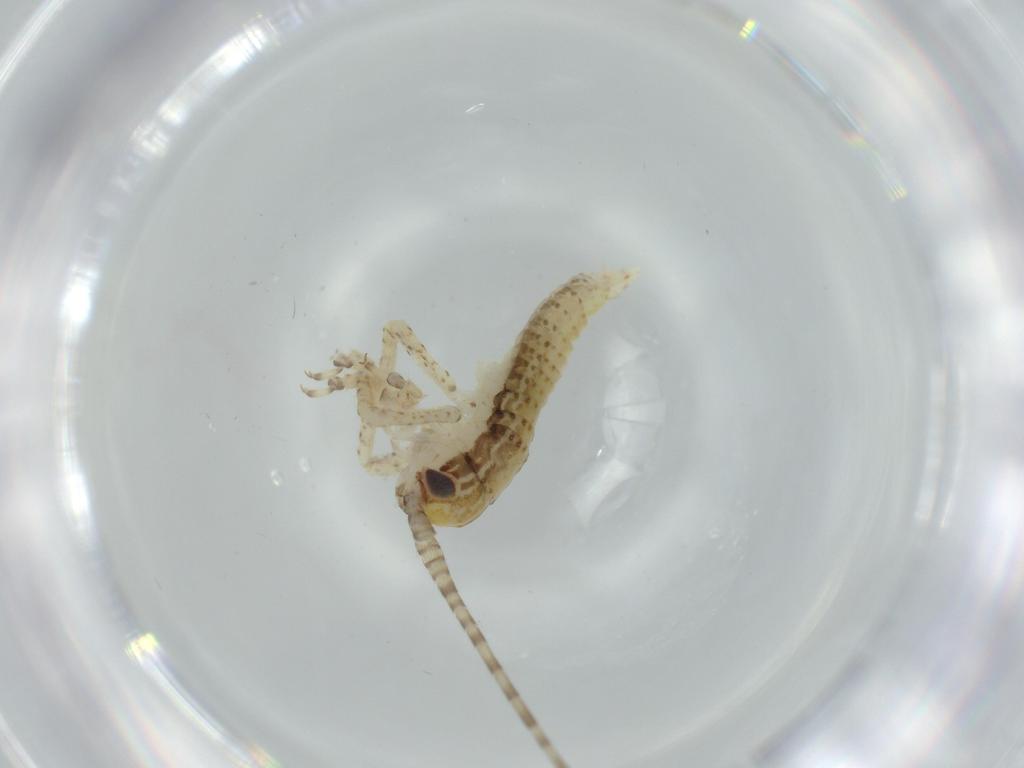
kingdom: Animalia
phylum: Arthropoda
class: Insecta
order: Orthoptera
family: Gryllidae
